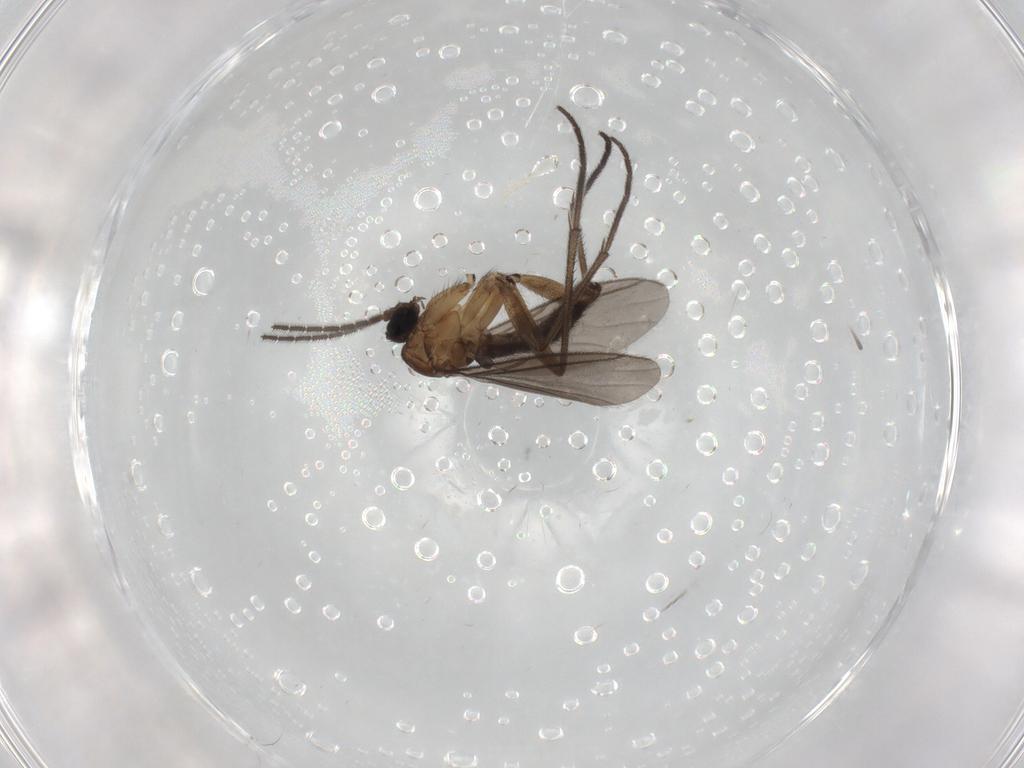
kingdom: Animalia
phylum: Arthropoda
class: Insecta
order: Diptera
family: Sciaridae
